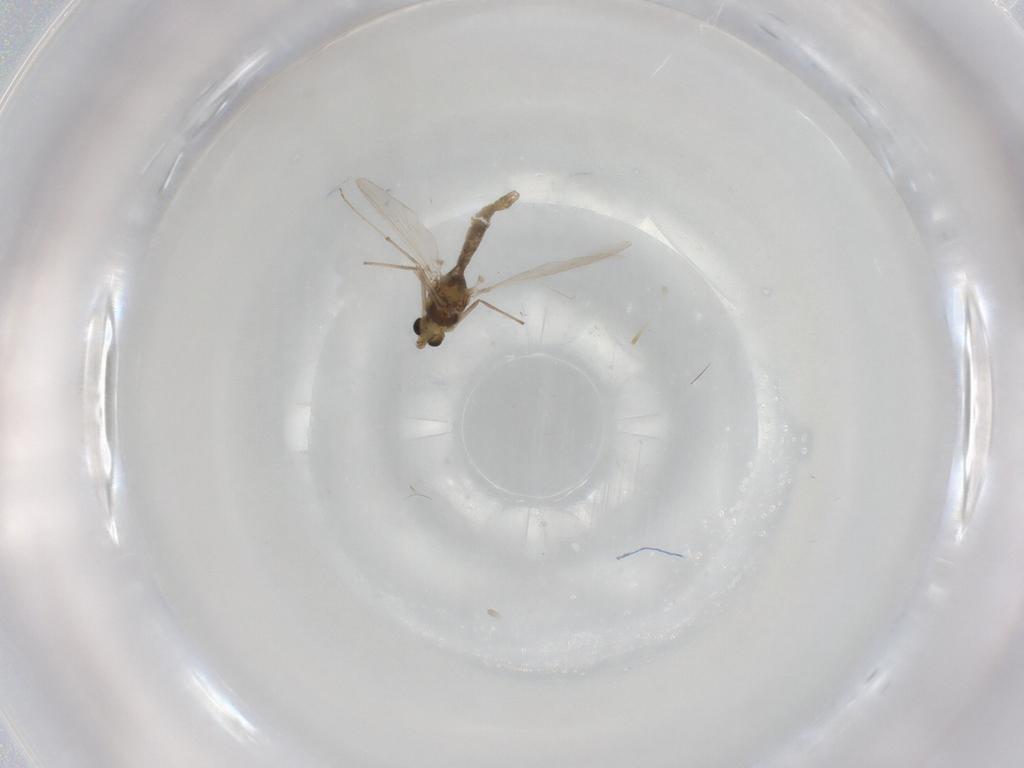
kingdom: Animalia
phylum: Arthropoda
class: Insecta
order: Diptera
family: Chironomidae
